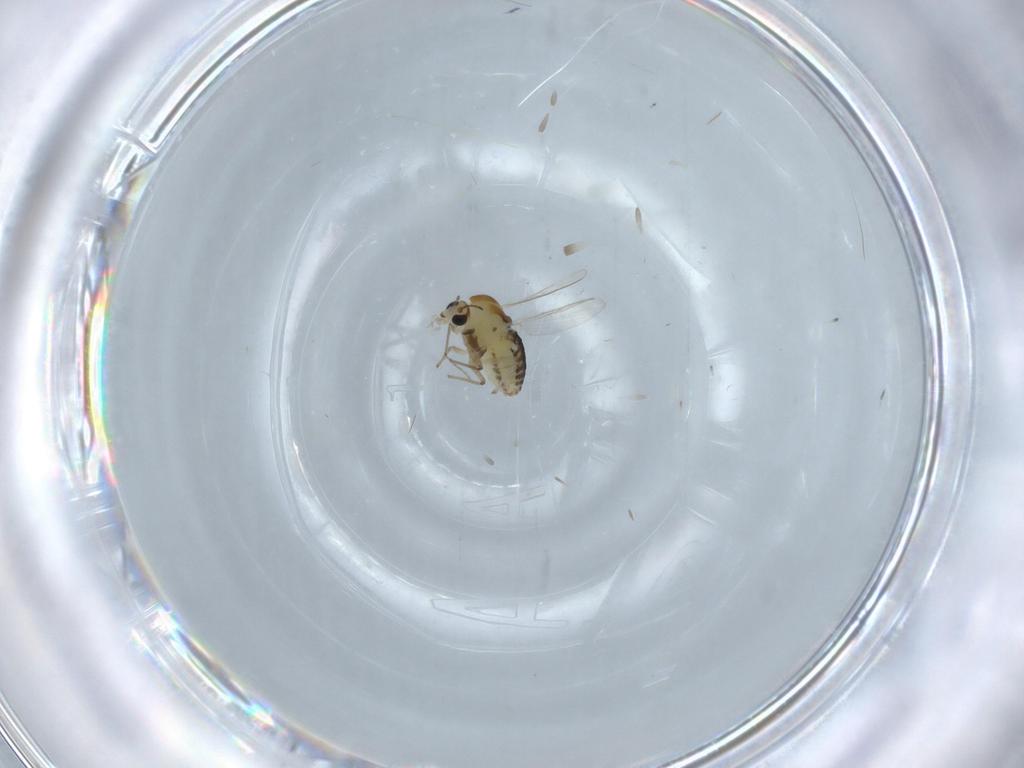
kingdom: Animalia
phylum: Arthropoda
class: Insecta
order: Diptera
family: Chironomidae
